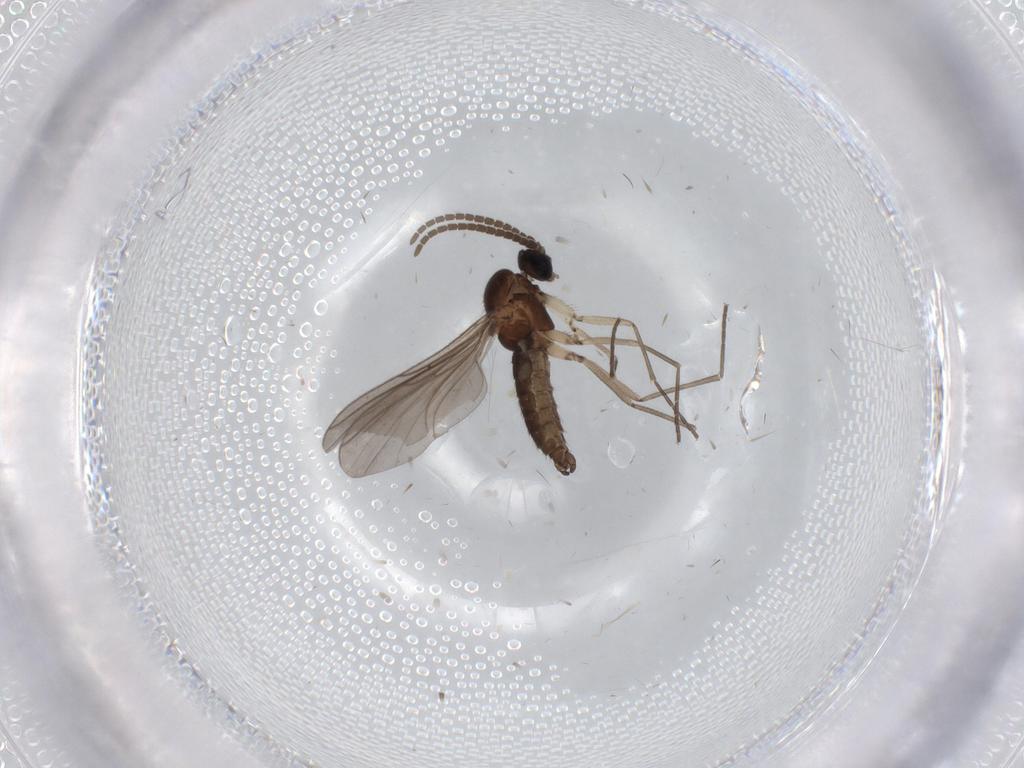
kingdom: Animalia
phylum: Arthropoda
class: Insecta
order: Diptera
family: Sciaridae
